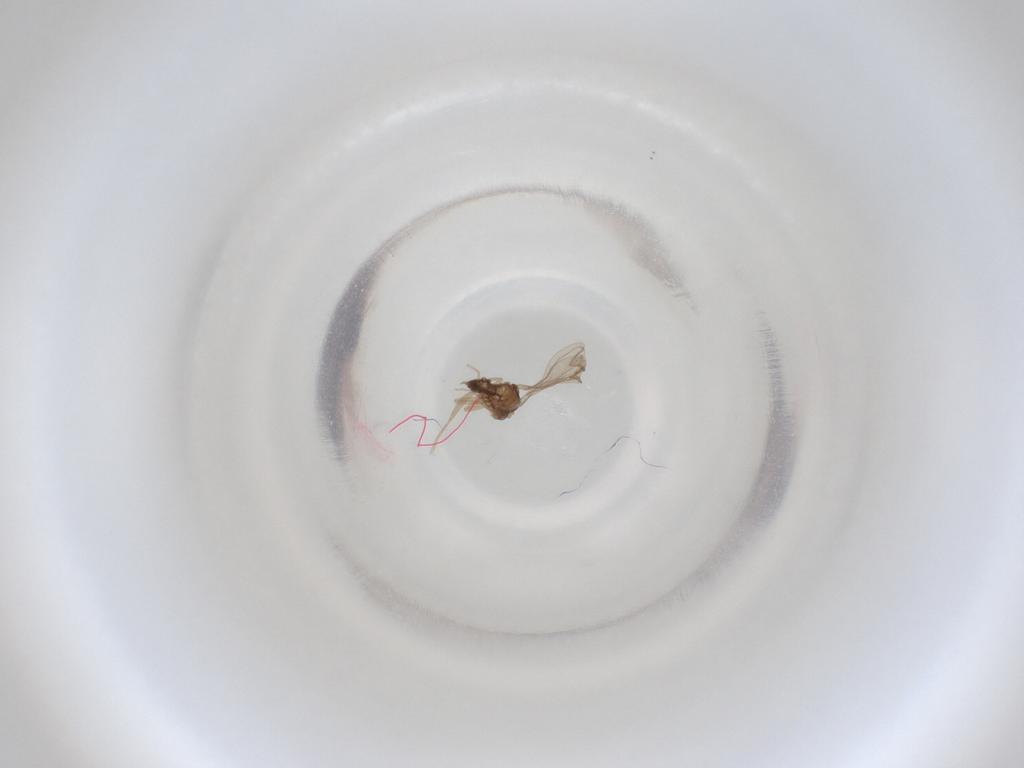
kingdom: Animalia
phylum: Arthropoda
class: Insecta
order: Diptera
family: Cecidomyiidae
